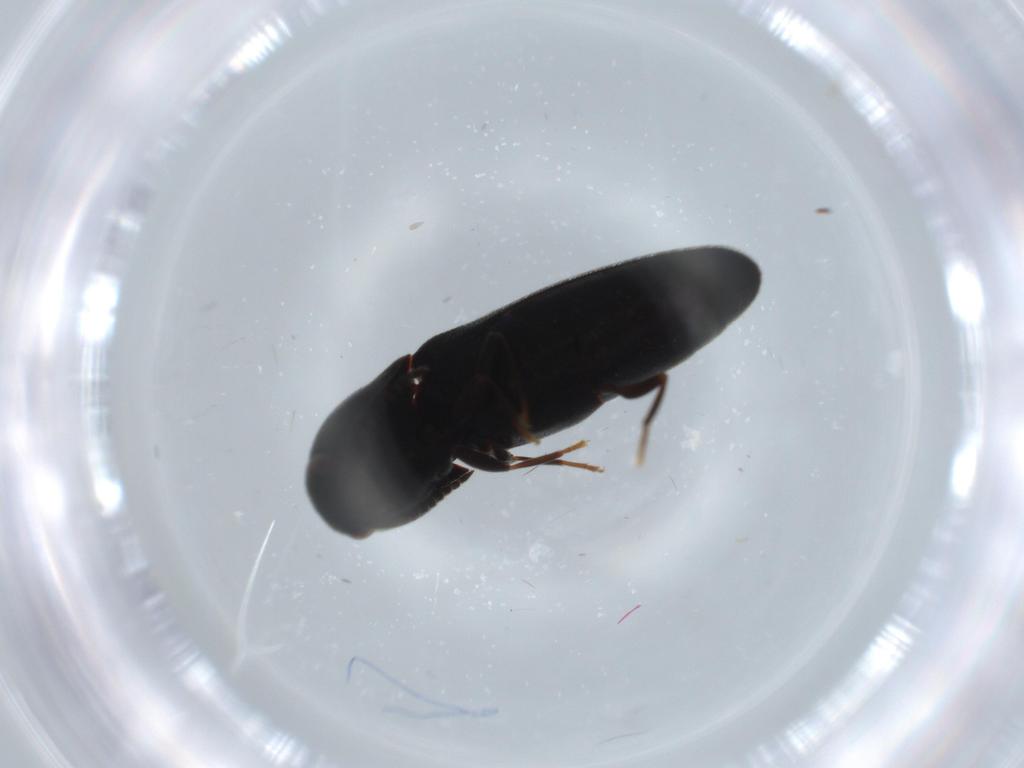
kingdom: Animalia
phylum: Arthropoda
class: Insecta
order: Coleoptera
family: Eucnemidae
